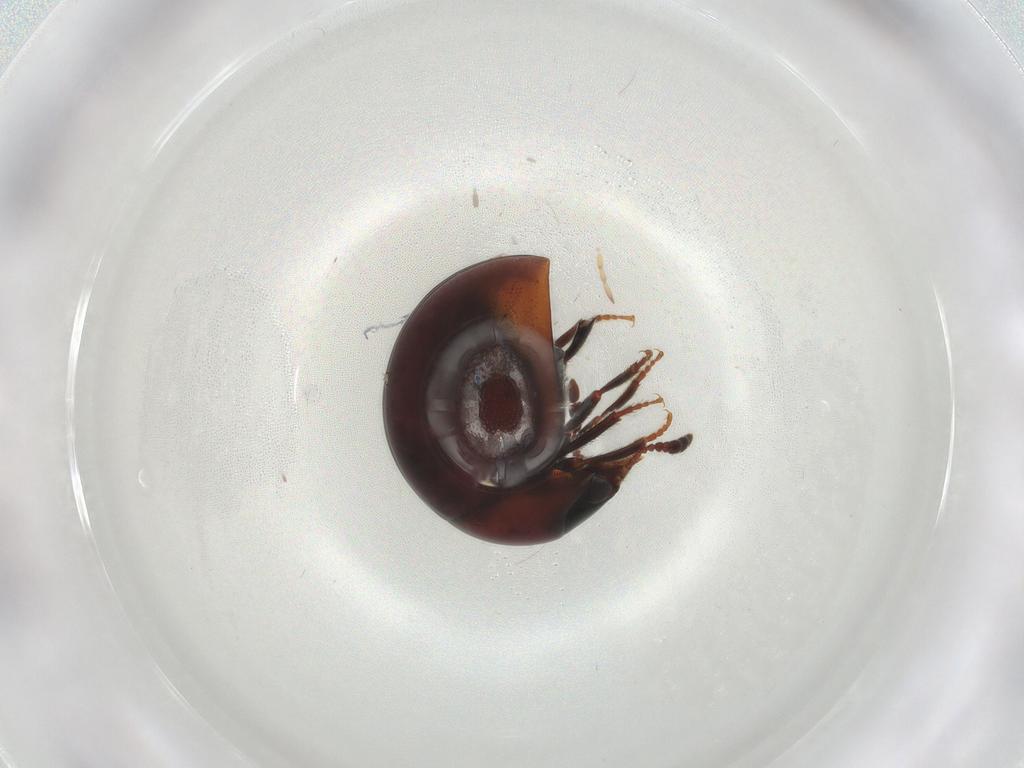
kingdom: Animalia
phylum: Arthropoda
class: Insecta
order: Coleoptera
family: Leiodidae
